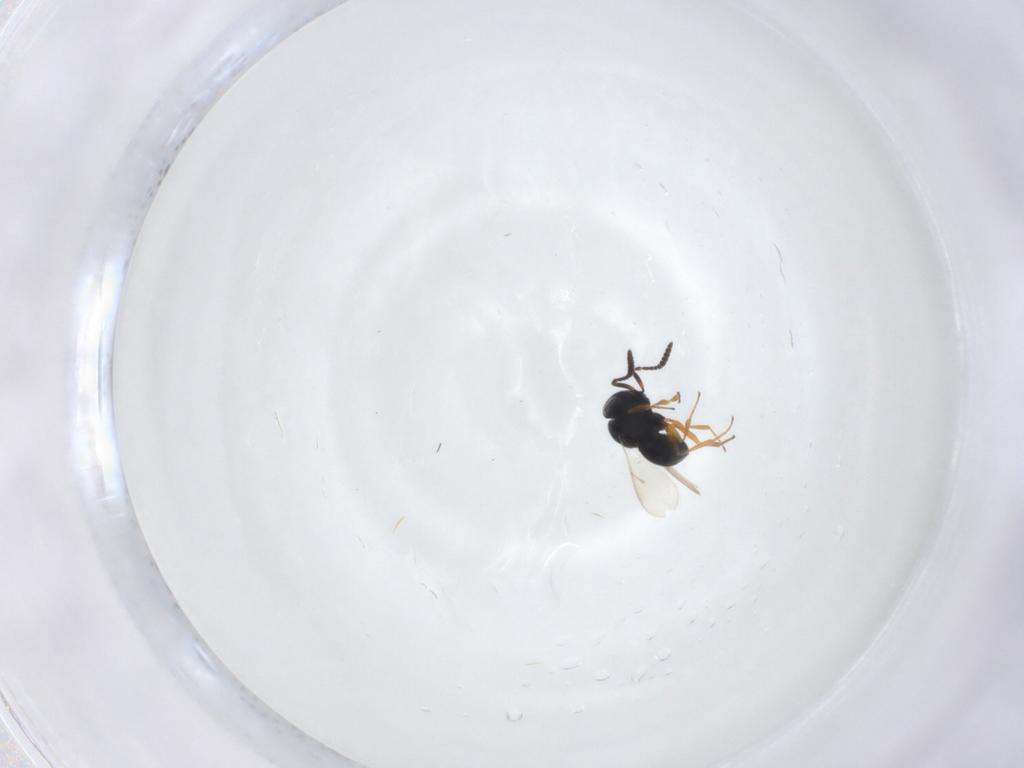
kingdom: Animalia
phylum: Arthropoda
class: Insecta
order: Hymenoptera
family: Scelionidae
